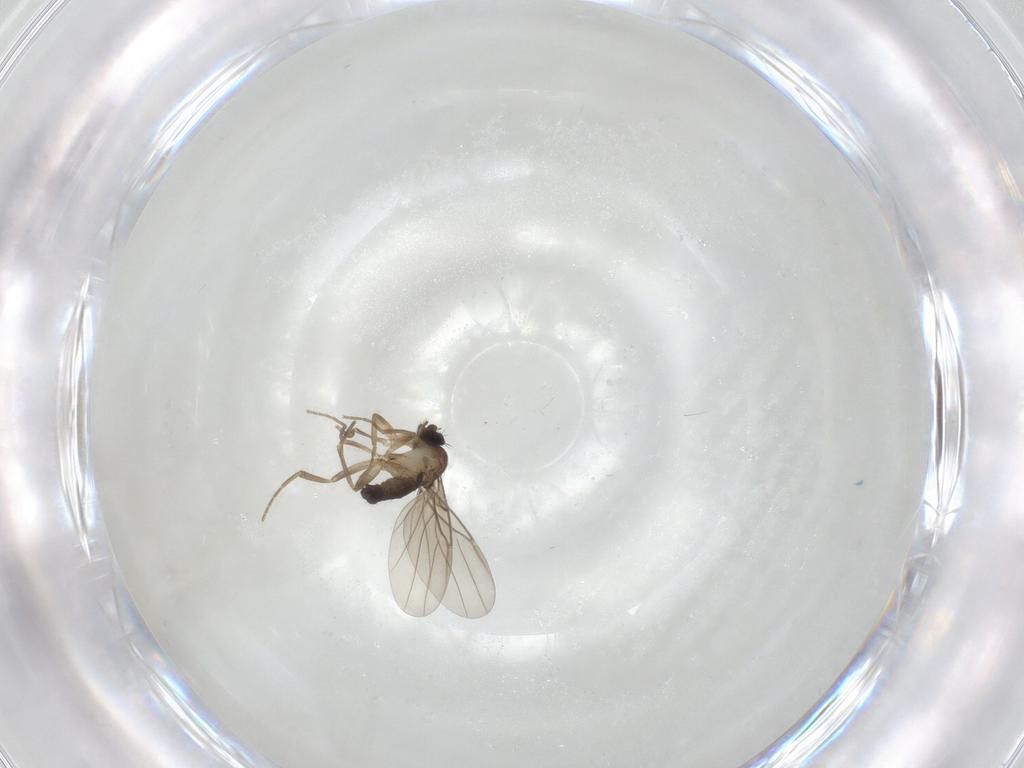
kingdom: Animalia
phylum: Arthropoda
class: Insecta
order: Diptera
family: Phoridae
